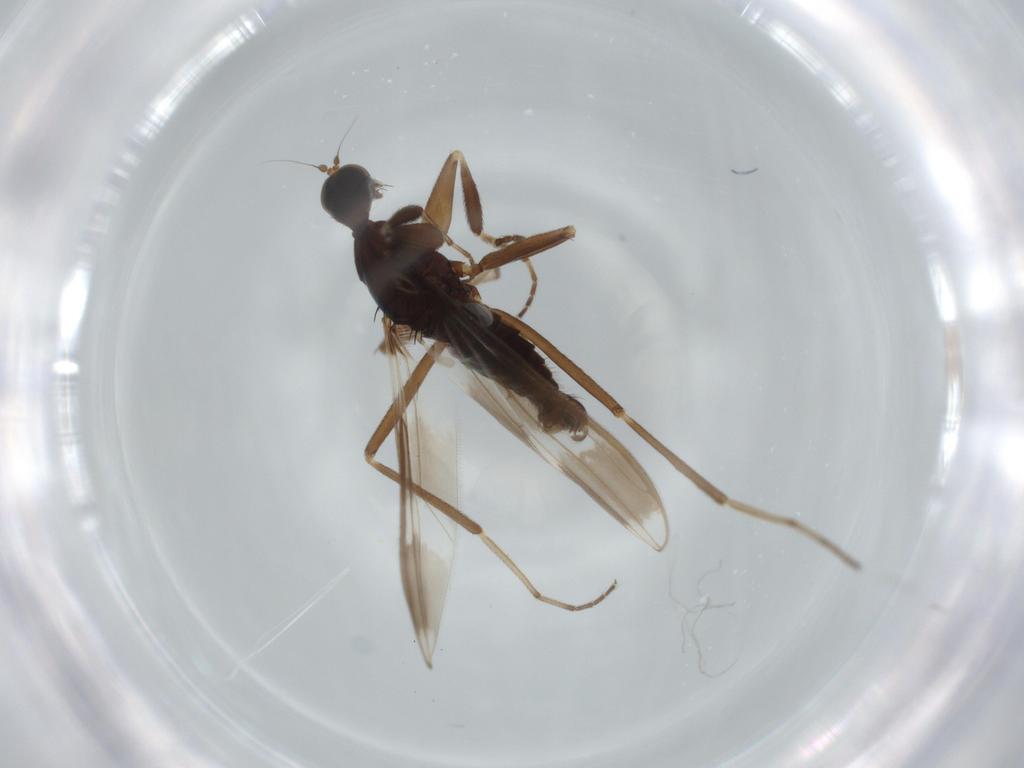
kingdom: Animalia
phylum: Arthropoda
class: Insecta
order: Diptera
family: Hybotidae
